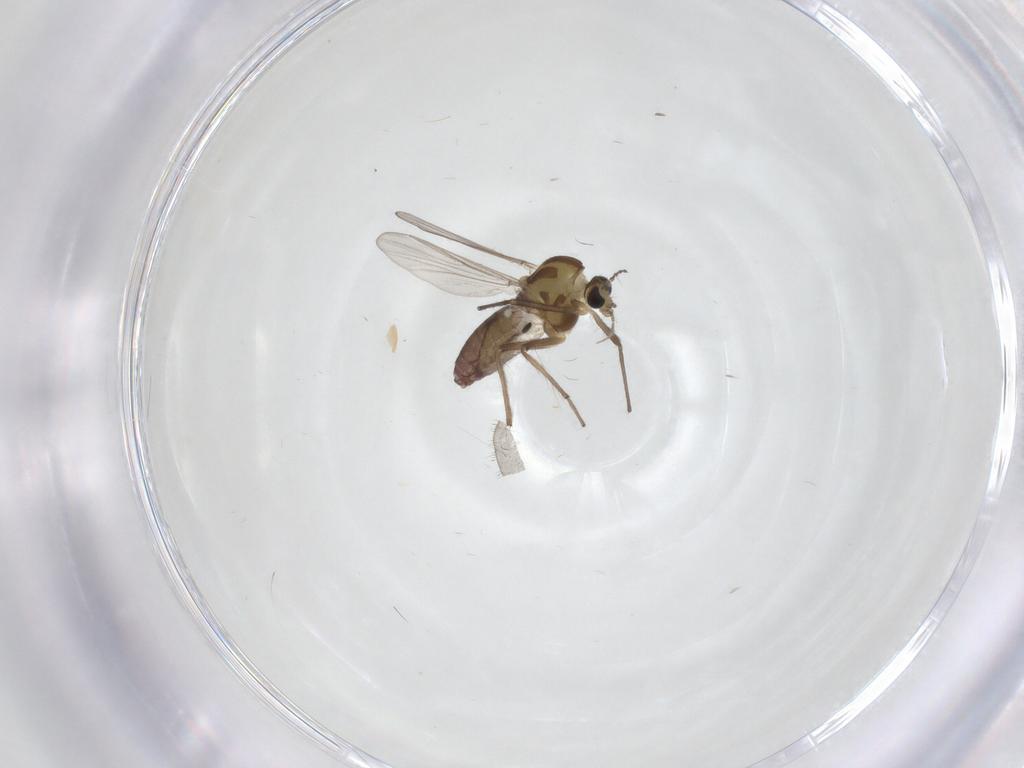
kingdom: Animalia
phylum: Arthropoda
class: Insecta
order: Diptera
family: Chironomidae
